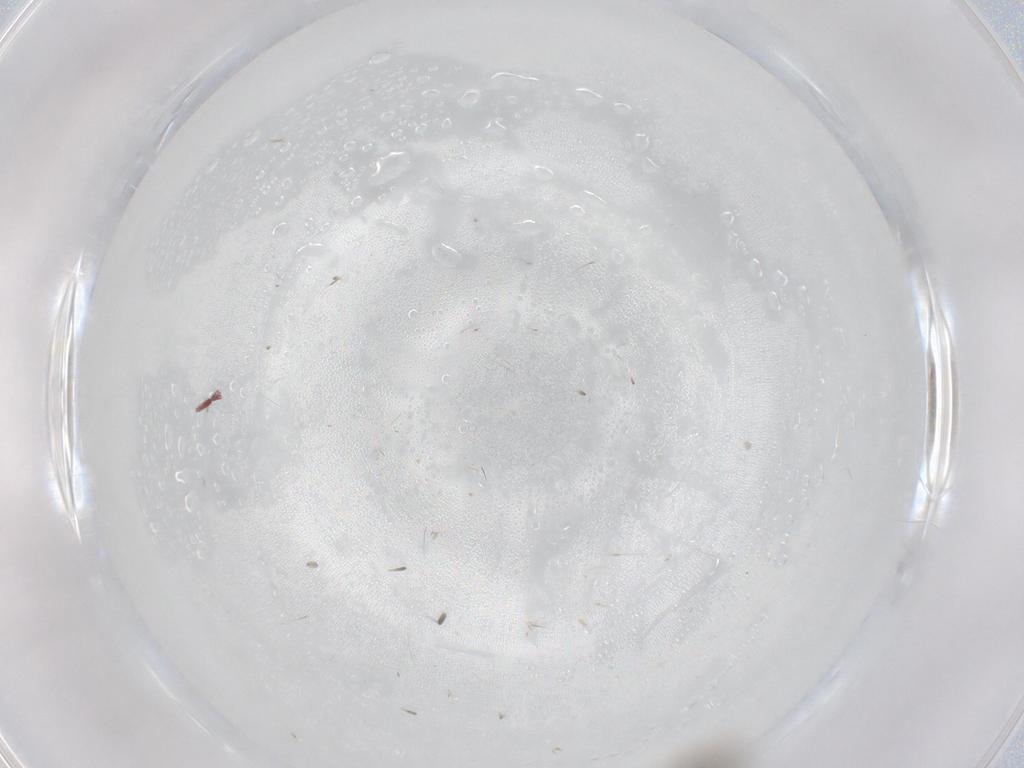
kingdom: Animalia
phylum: Arthropoda
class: Insecta
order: Diptera
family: Cecidomyiidae
